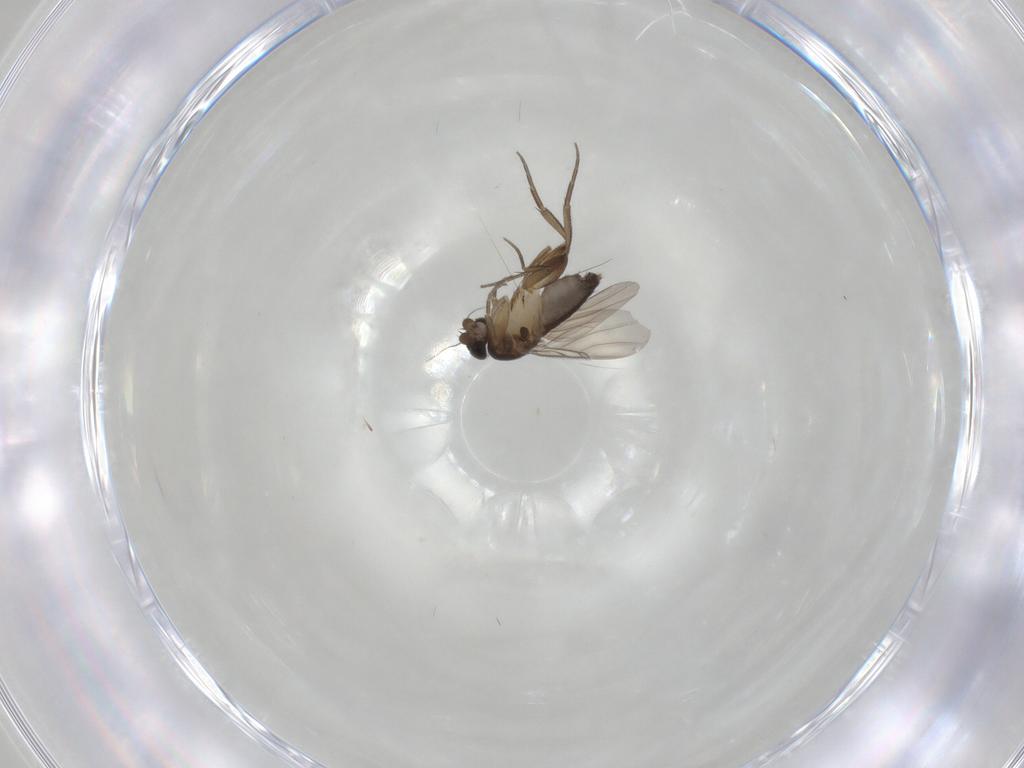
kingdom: Animalia
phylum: Arthropoda
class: Insecta
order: Diptera
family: Phoridae
